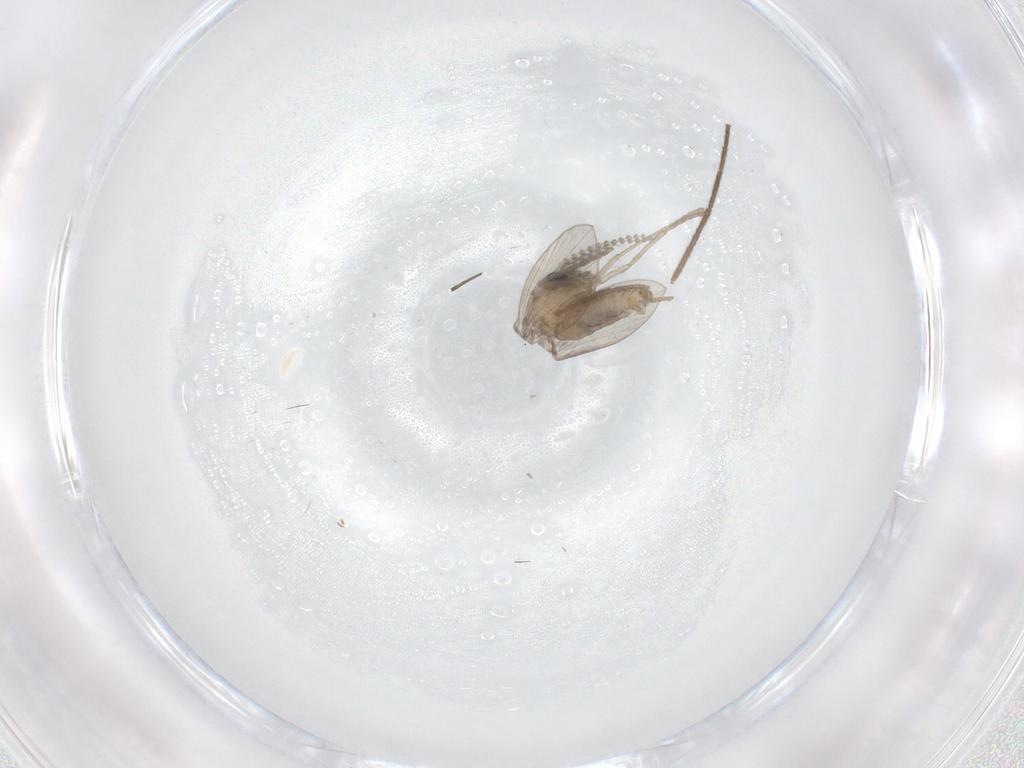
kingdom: Animalia
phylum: Arthropoda
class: Insecta
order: Diptera
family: Psychodidae
